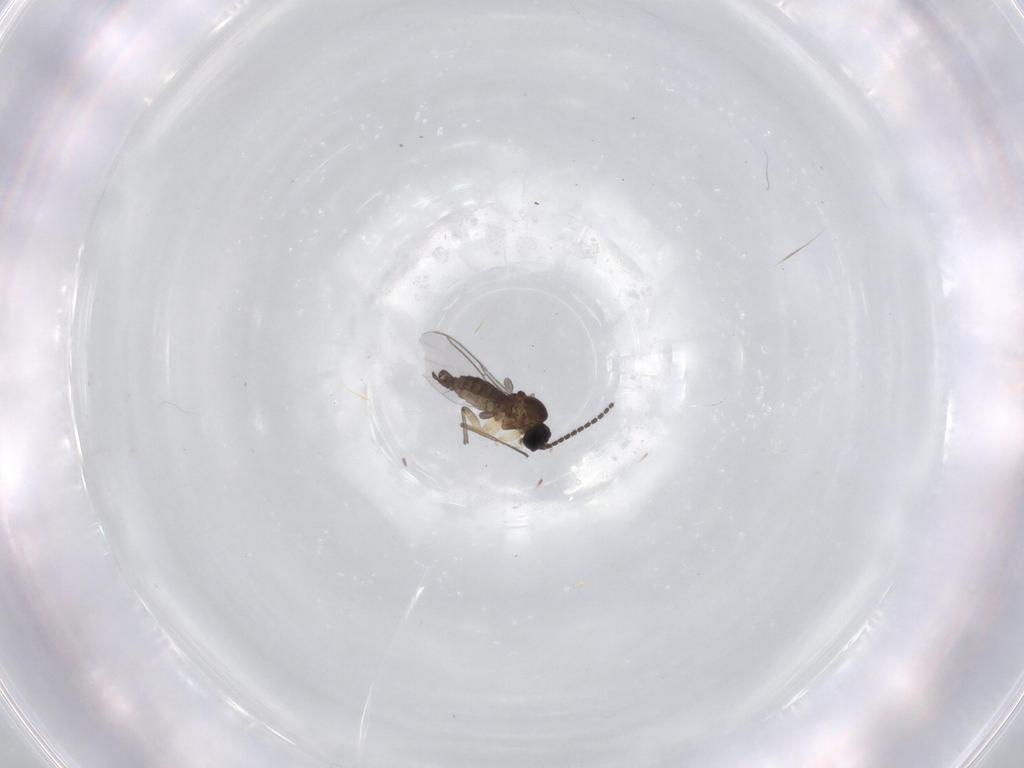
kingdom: Animalia
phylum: Arthropoda
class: Insecta
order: Diptera
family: Sciaridae
